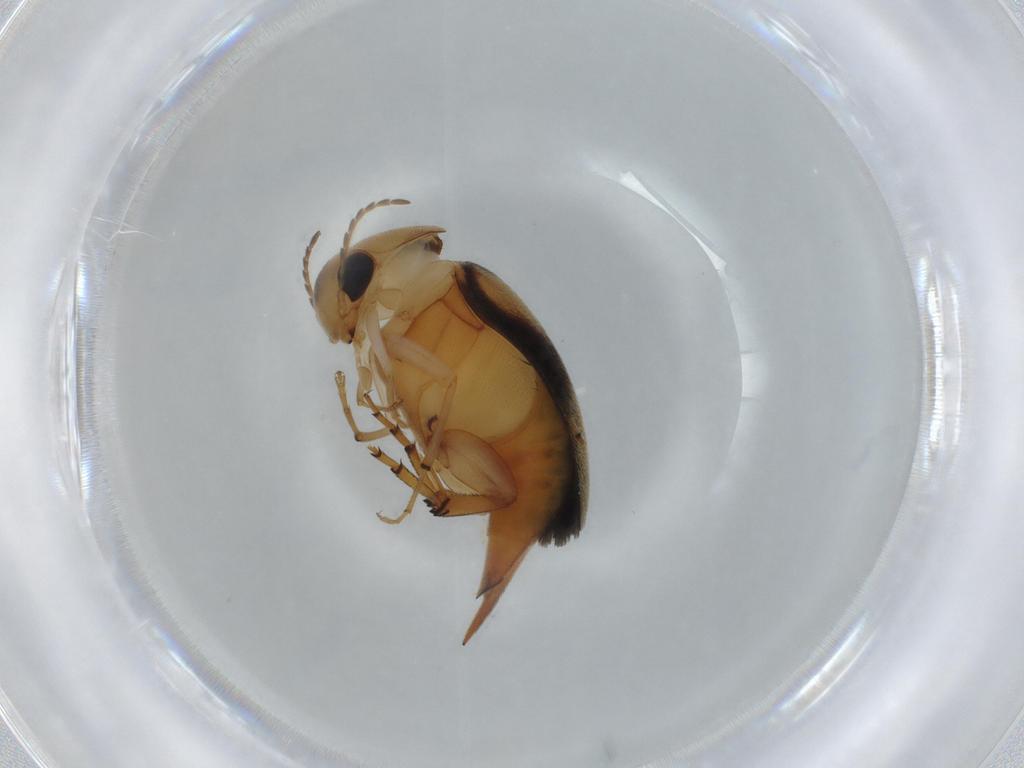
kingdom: Animalia
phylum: Arthropoda
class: Insecta
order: Coleoptera
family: Mordellidae
